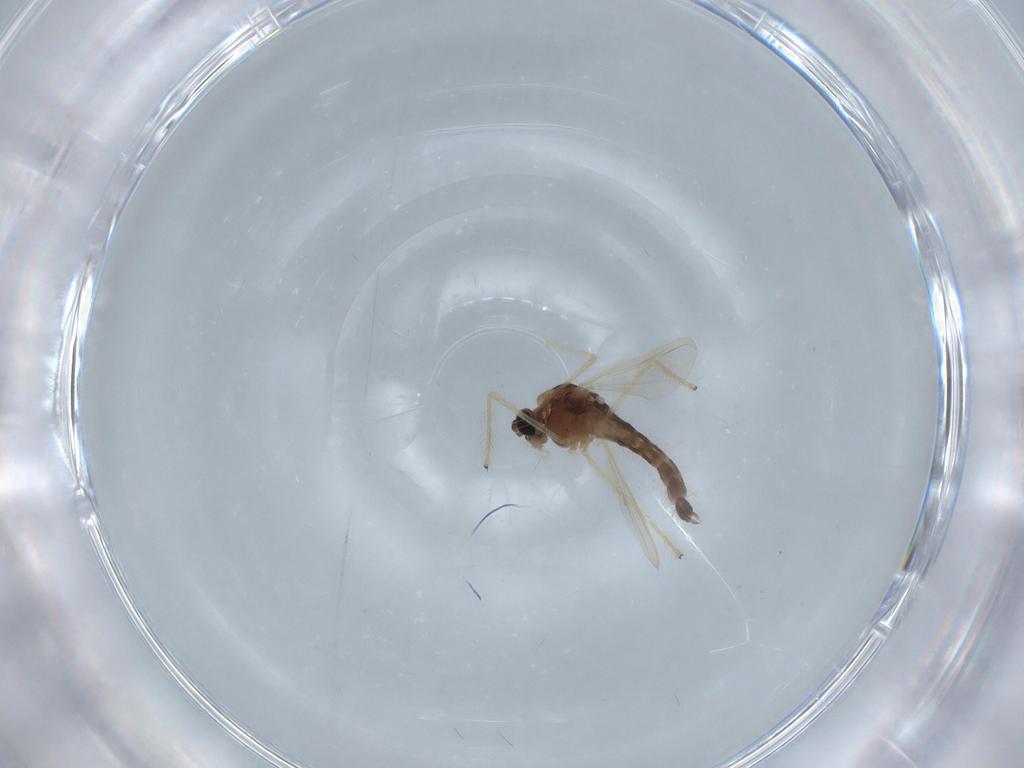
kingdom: Animalia
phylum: Arthropoda
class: Insecta
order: Diptera
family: Chironomidae
